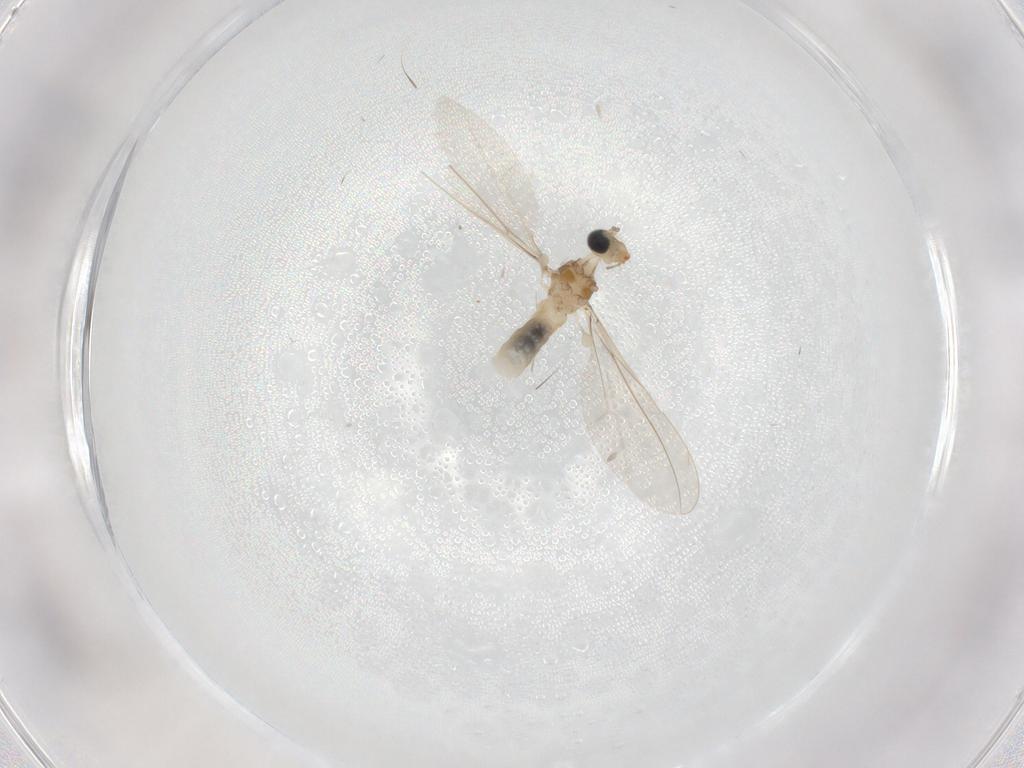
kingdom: Animalia
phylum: Arthropoda
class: Insecta
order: Diptera
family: Cecidomyiidae
